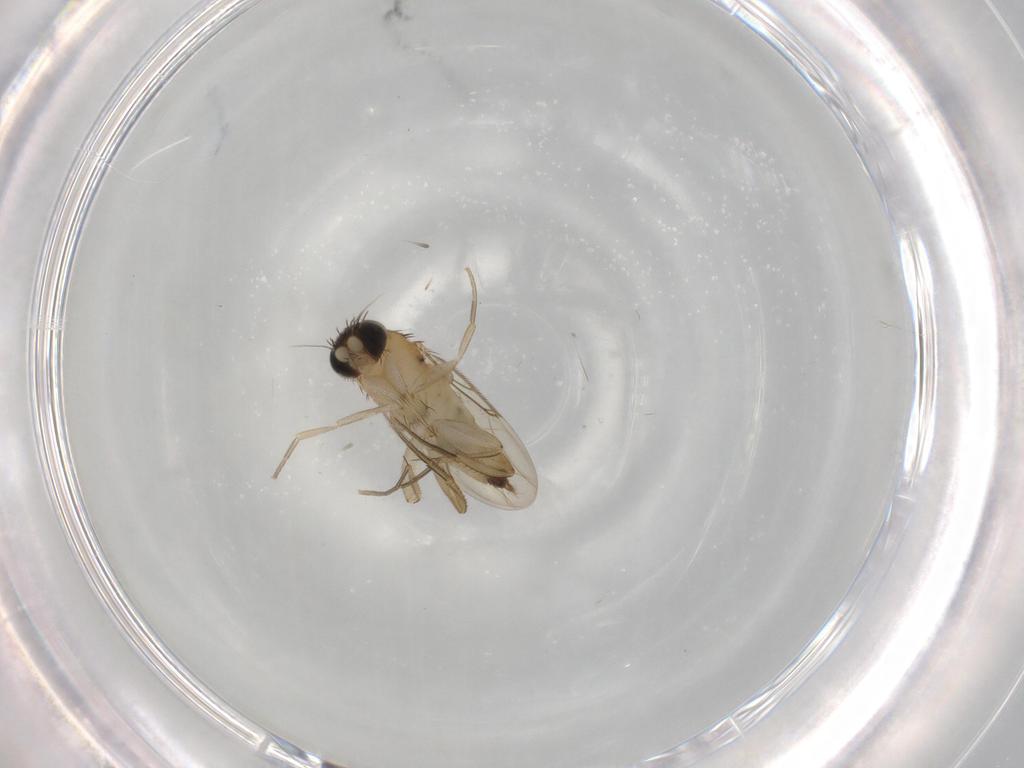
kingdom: Animalia
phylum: Arthropoda
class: Insecta
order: Diptera
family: Phoridae
